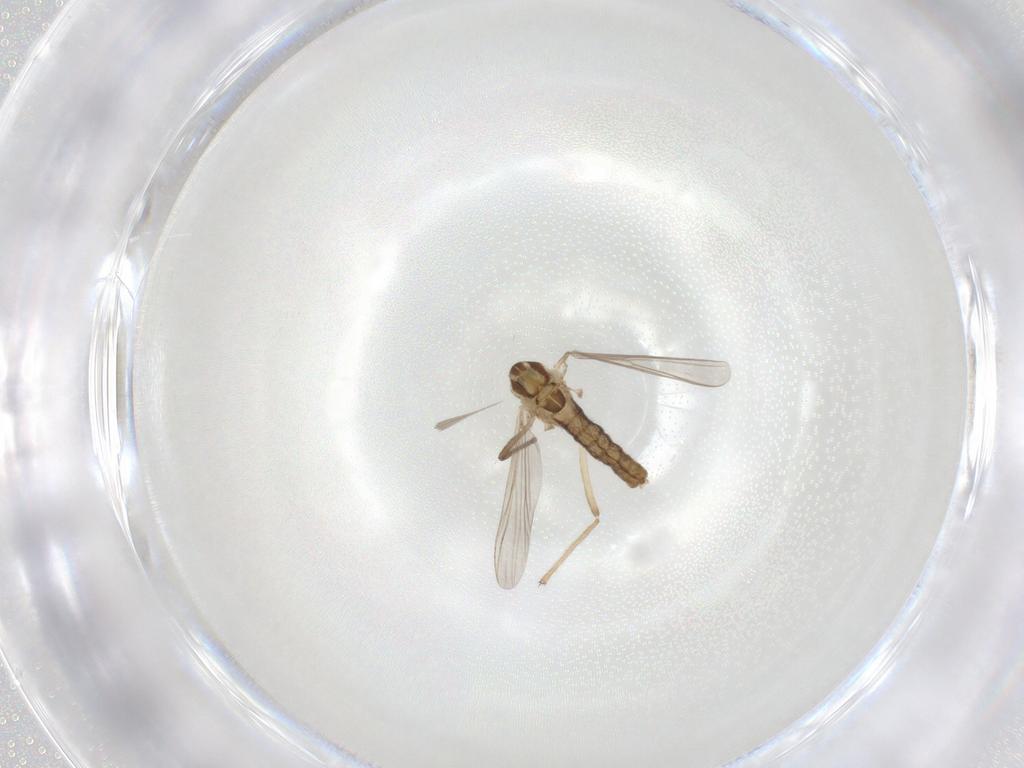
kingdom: Animalia
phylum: Arthropoda
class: Insecta
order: Diptera
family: Chironomidae
